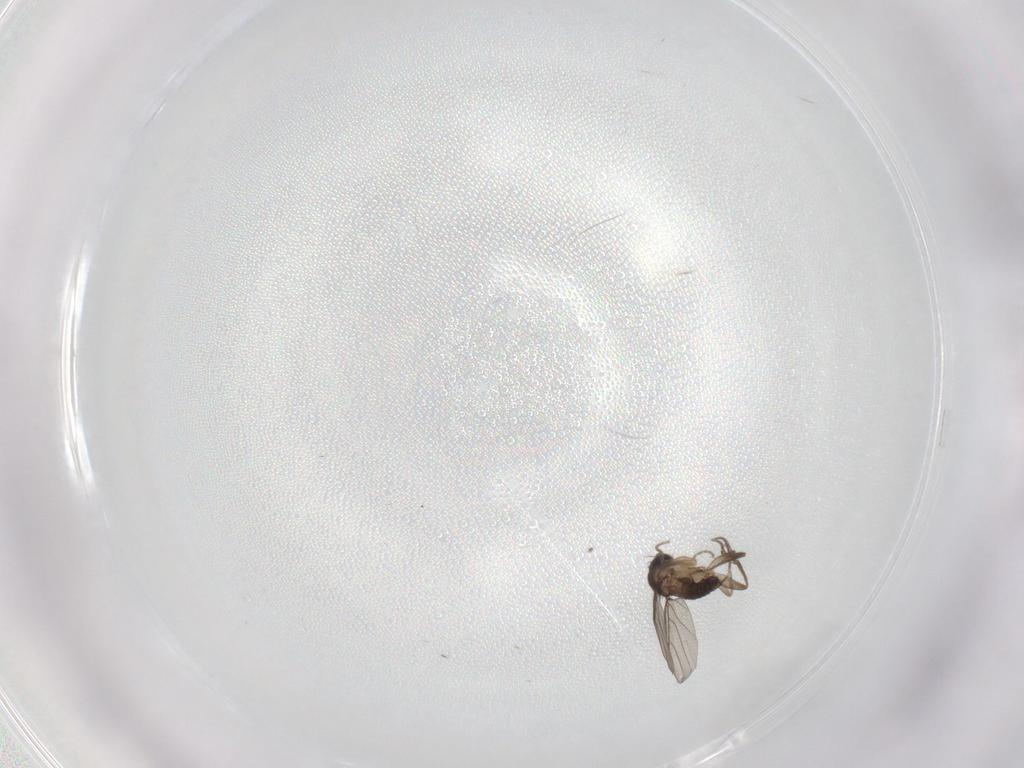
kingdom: Animalia
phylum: Arthropoda
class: Insecta
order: Diptera
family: Phoridae
